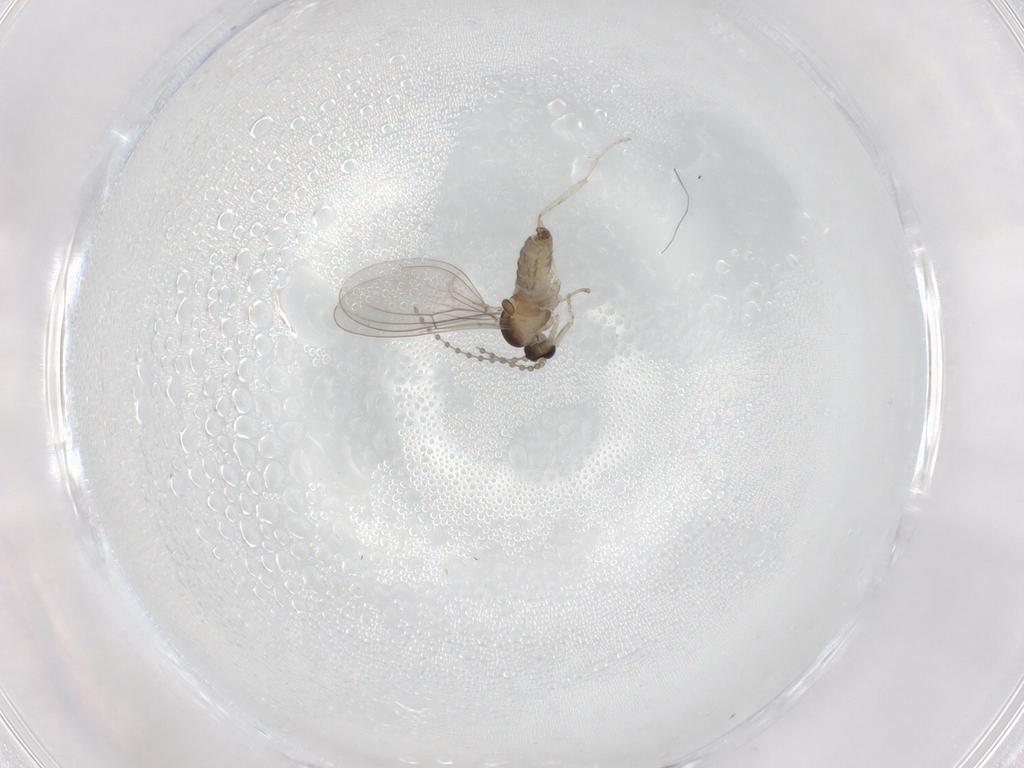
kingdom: Animalia
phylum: Arthropoda
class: Insecta
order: Diptera
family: Cecidomyiidae
